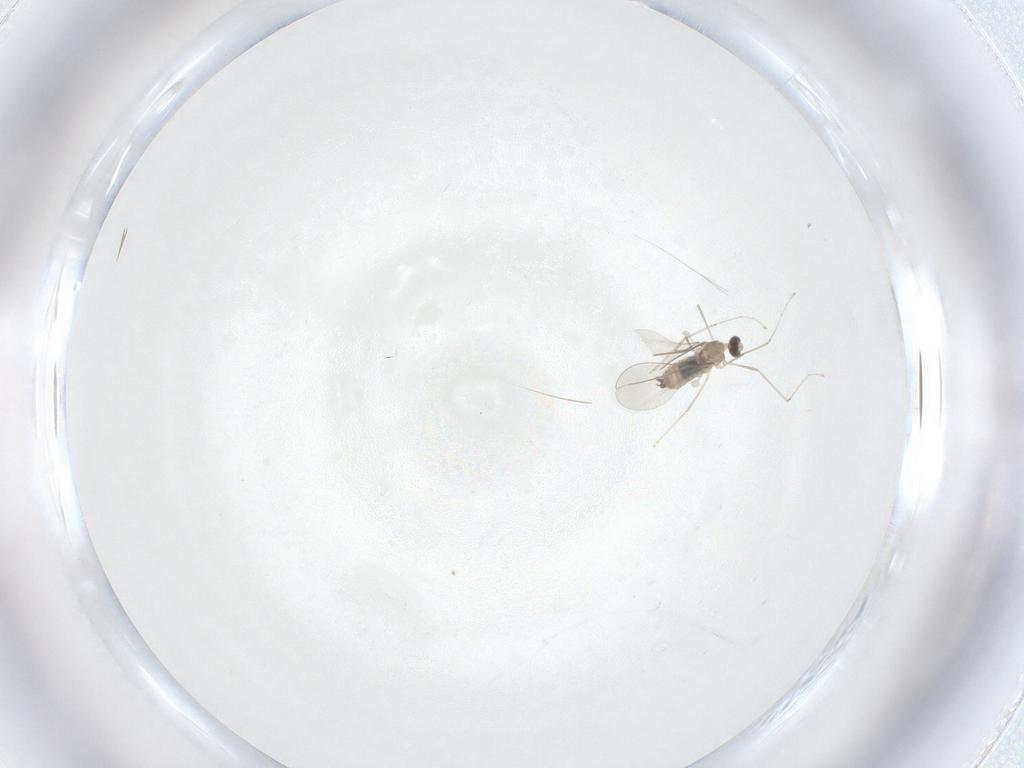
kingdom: Animalia
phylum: Arthropoda
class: Insecta
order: Diptera
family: Cecidomyiidae
